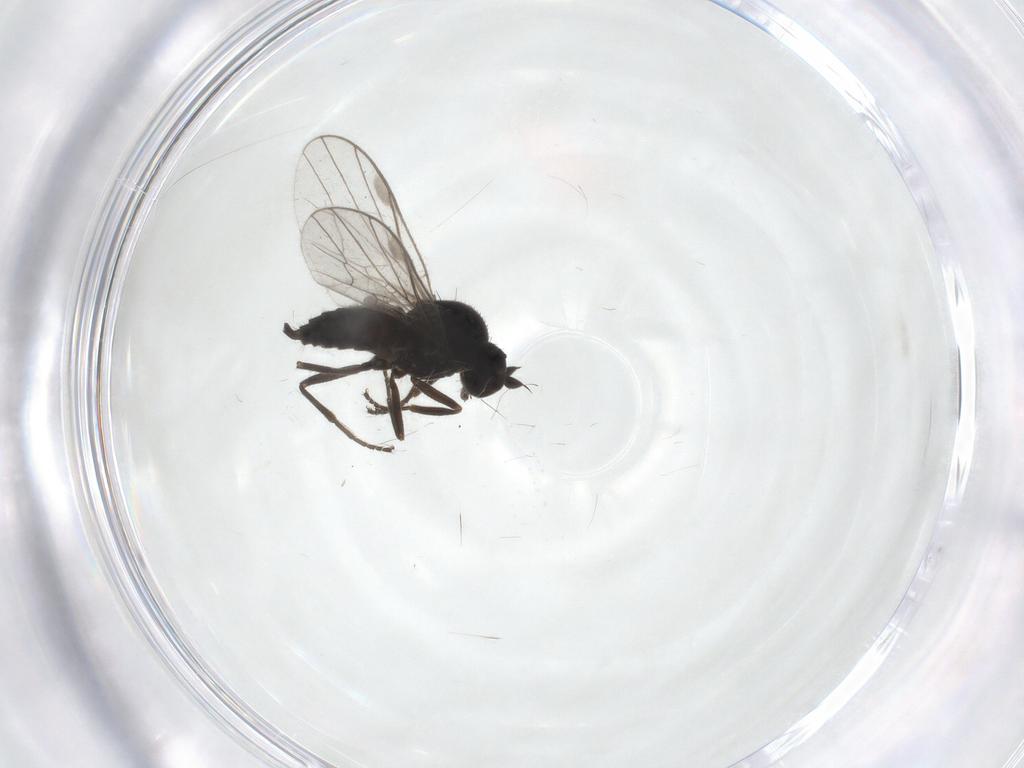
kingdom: Animalia
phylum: Arthropoda
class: Insecta
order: Diptera
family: Hybotidae
